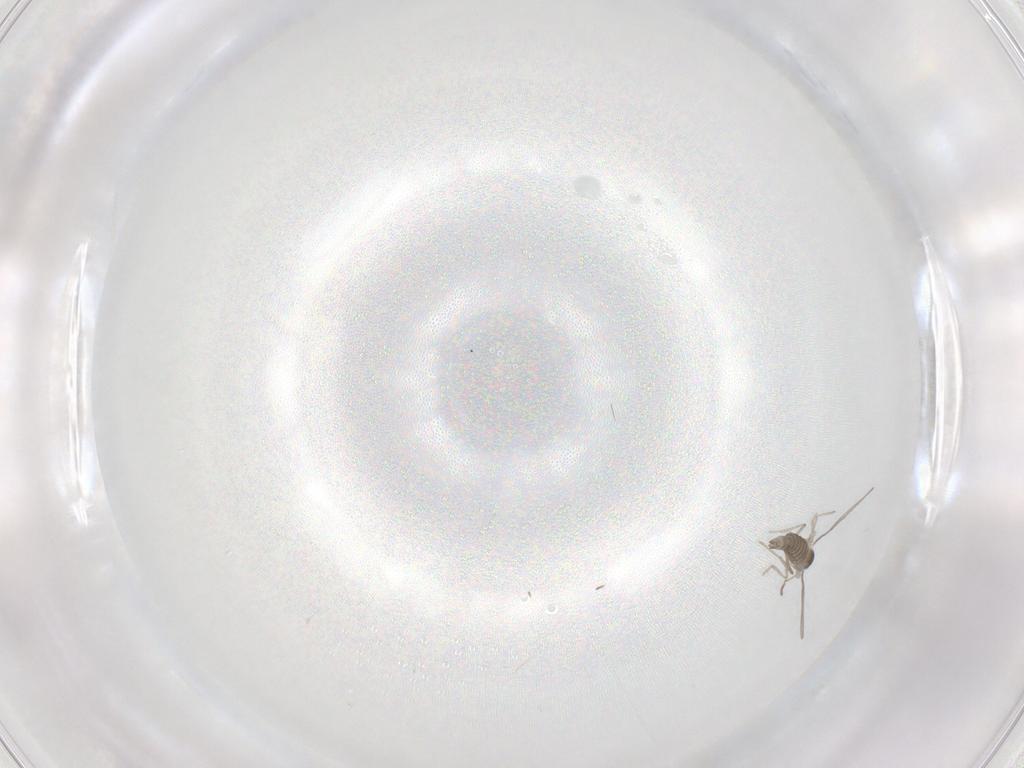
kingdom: Animalia
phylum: Arthropoda
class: Insecta
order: Diptera
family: Cecidomyiidae
